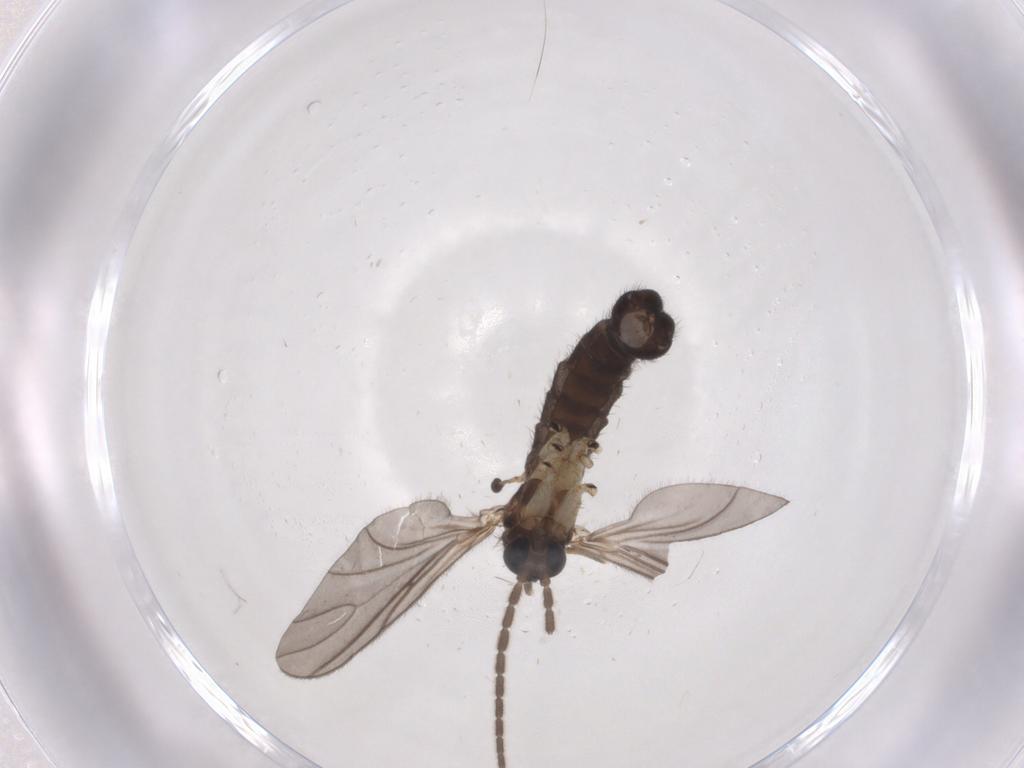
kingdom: Animalia
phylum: Arthropoda
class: Insecta
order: Diptera
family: Sciaridae
